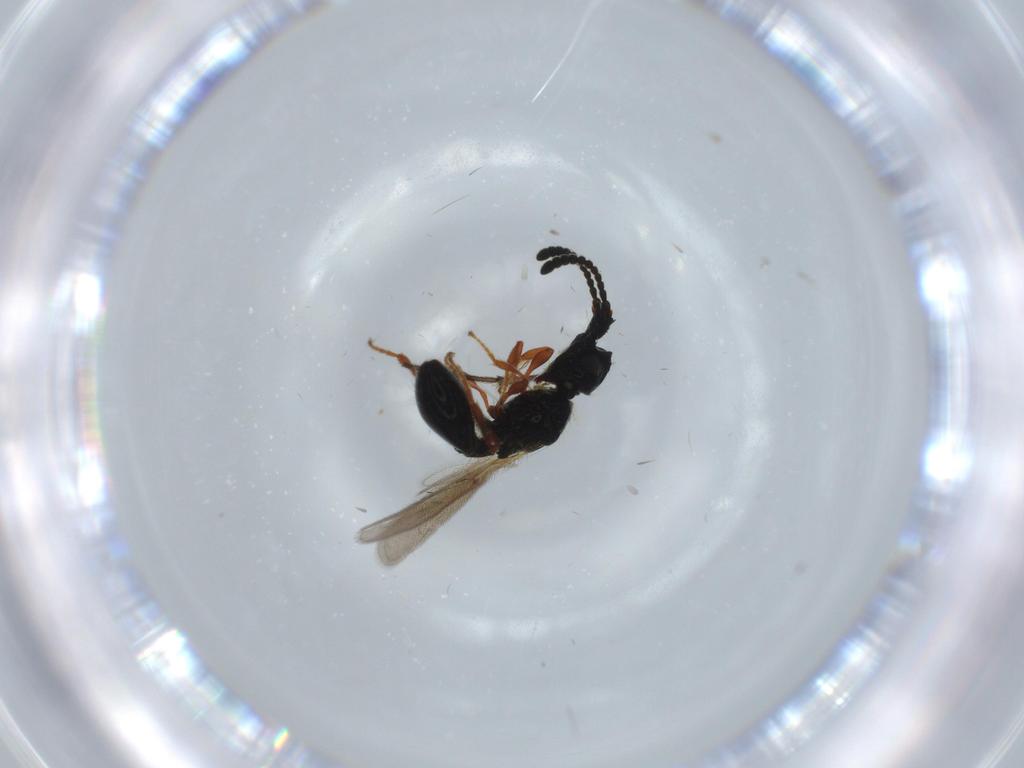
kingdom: Animalia
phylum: Arthropoda
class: Insecta
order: Hymenoptera
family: Diapriidae
